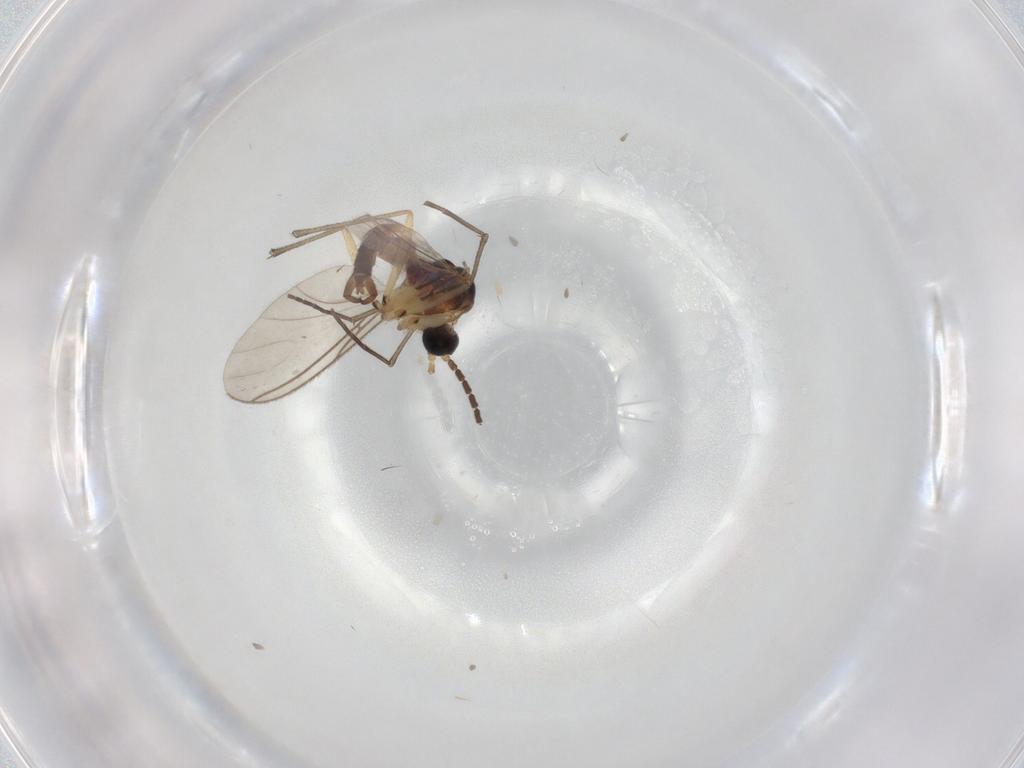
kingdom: Animalia
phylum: Arthropoda
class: Insecta
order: Diptera
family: Sciaridae
